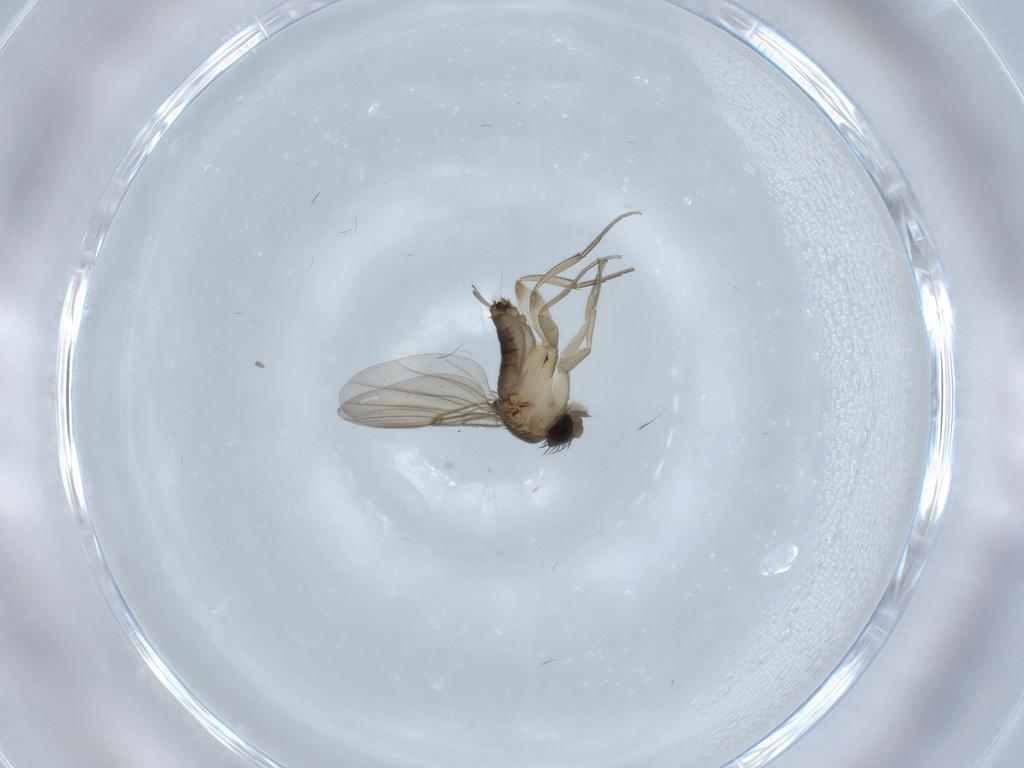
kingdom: Animalia
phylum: Arthropoda
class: Insecta
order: Diptera
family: Phoridae
